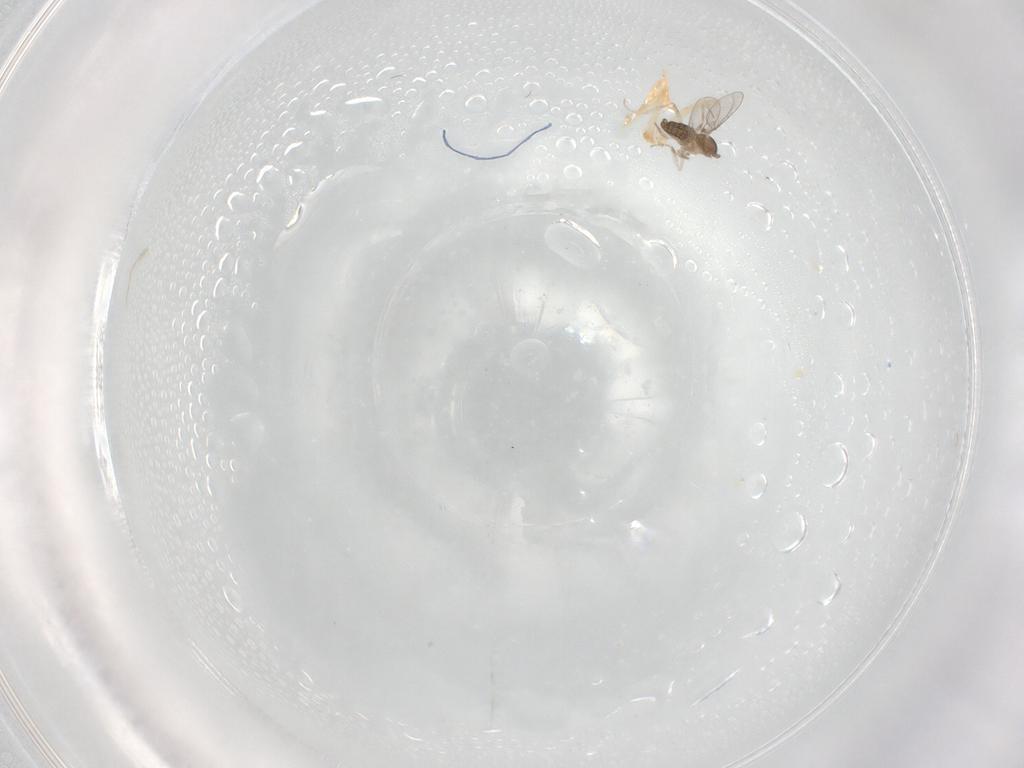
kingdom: Animalia
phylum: Arthropoda
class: Insecta
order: Diptera
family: Cecidomyiidae
